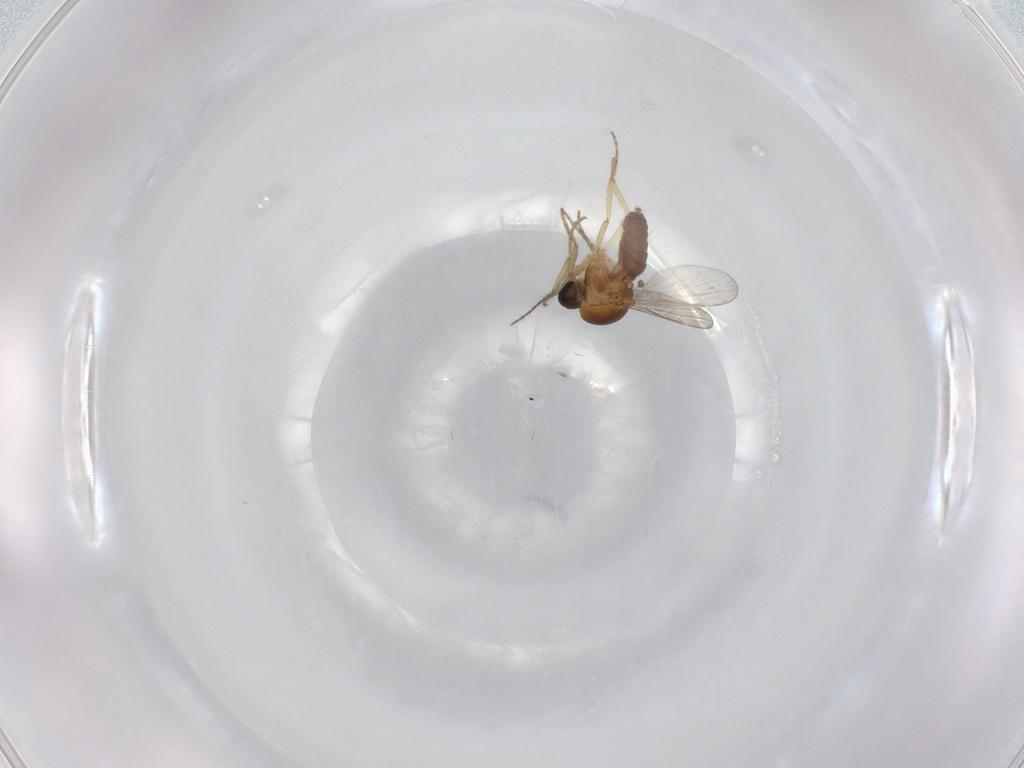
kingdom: Animalia
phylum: Arthropoda
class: Insecta
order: Diptera
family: Ceratopogonidae
